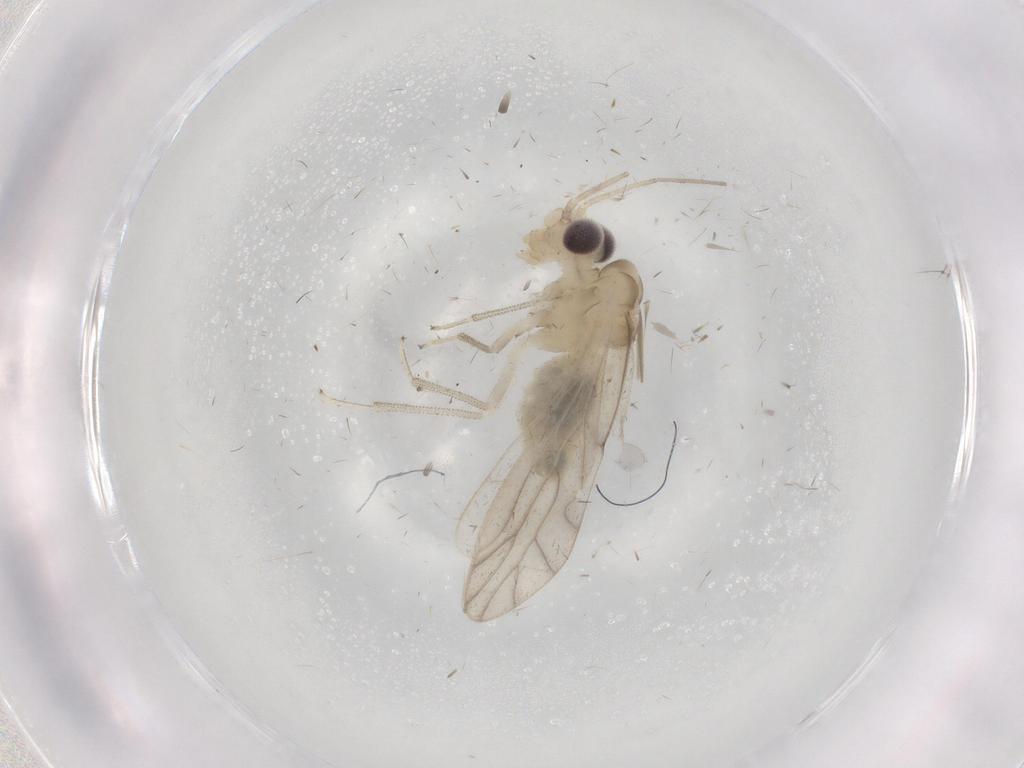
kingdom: Animalia
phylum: Arthropoda
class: Insecta
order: Psocodea
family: Caeciliusidae
